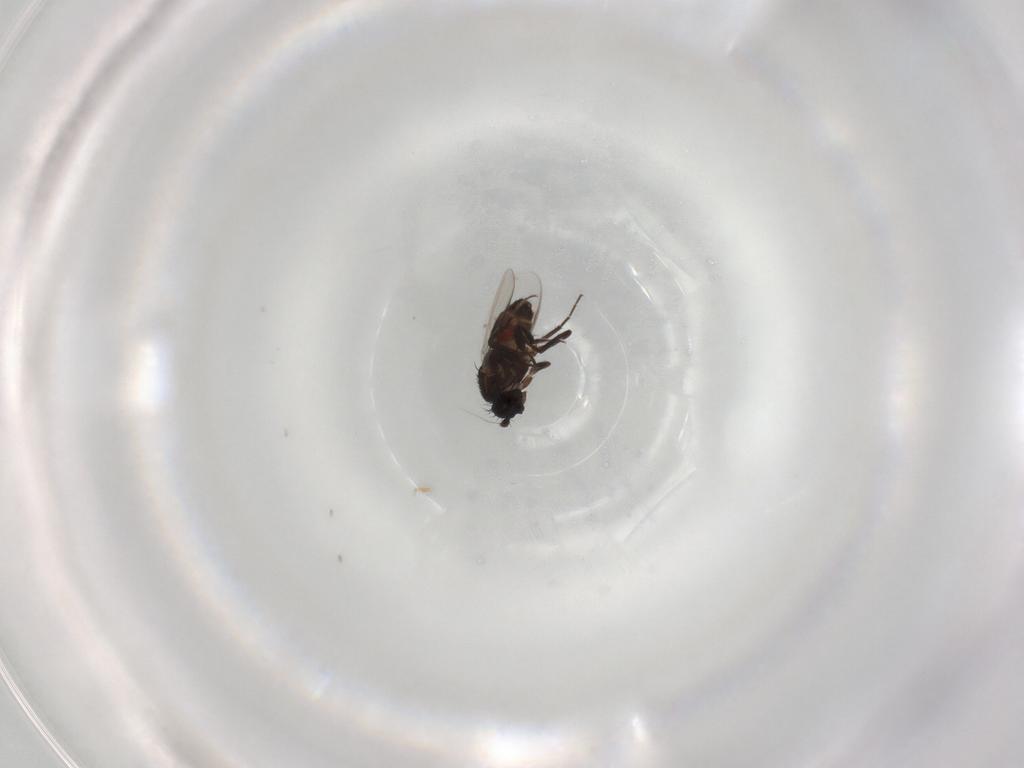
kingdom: Animalia
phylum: Arthropoda
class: Insecta
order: Diptera
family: Sphaeroceridae
